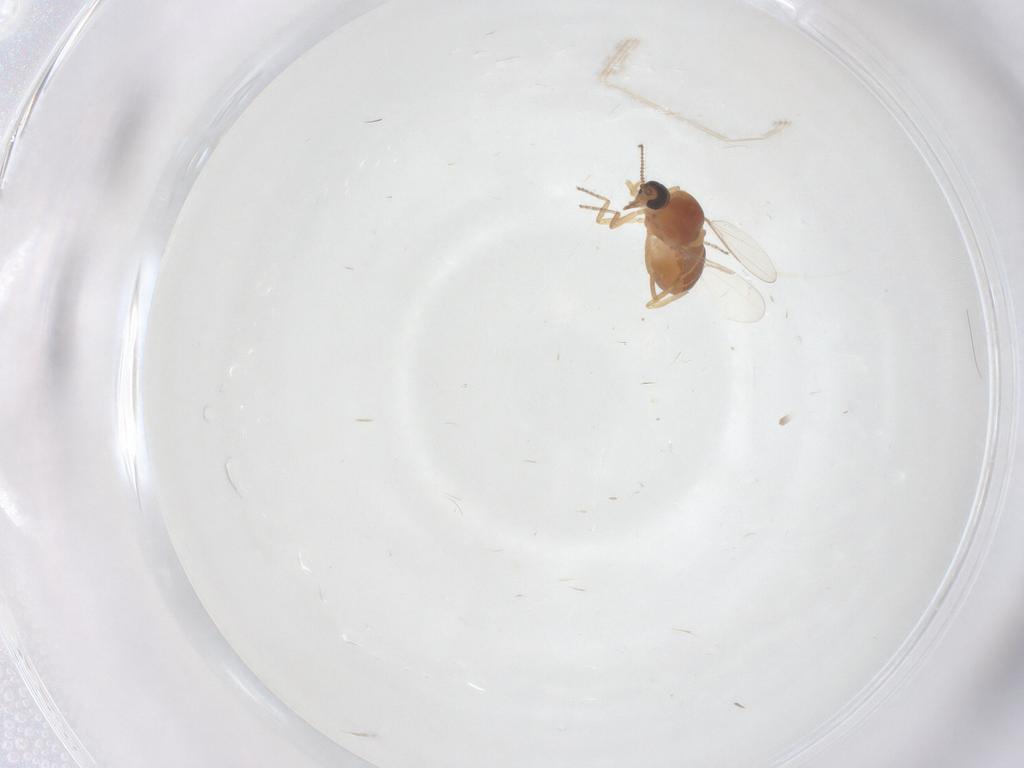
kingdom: Animalia
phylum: Arthropoda
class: Insecta
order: Diptera
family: Ceratopogonidae
